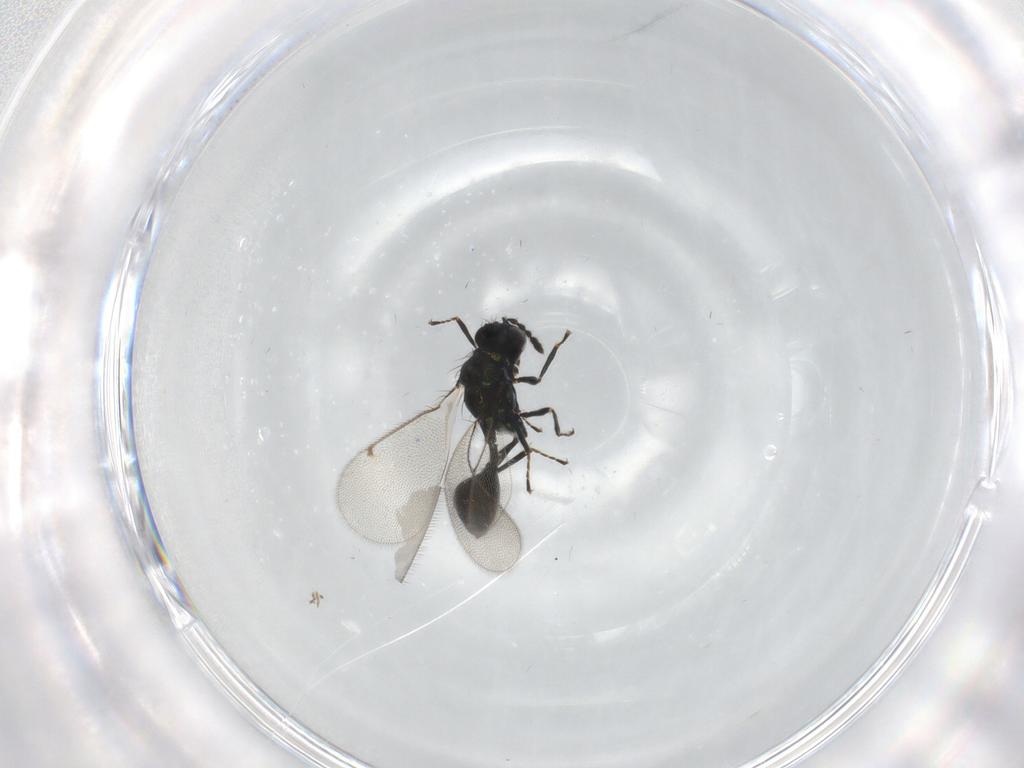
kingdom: Animalia
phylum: Arthropoda
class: Insecta
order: Hymenoptera
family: Eulophidae
